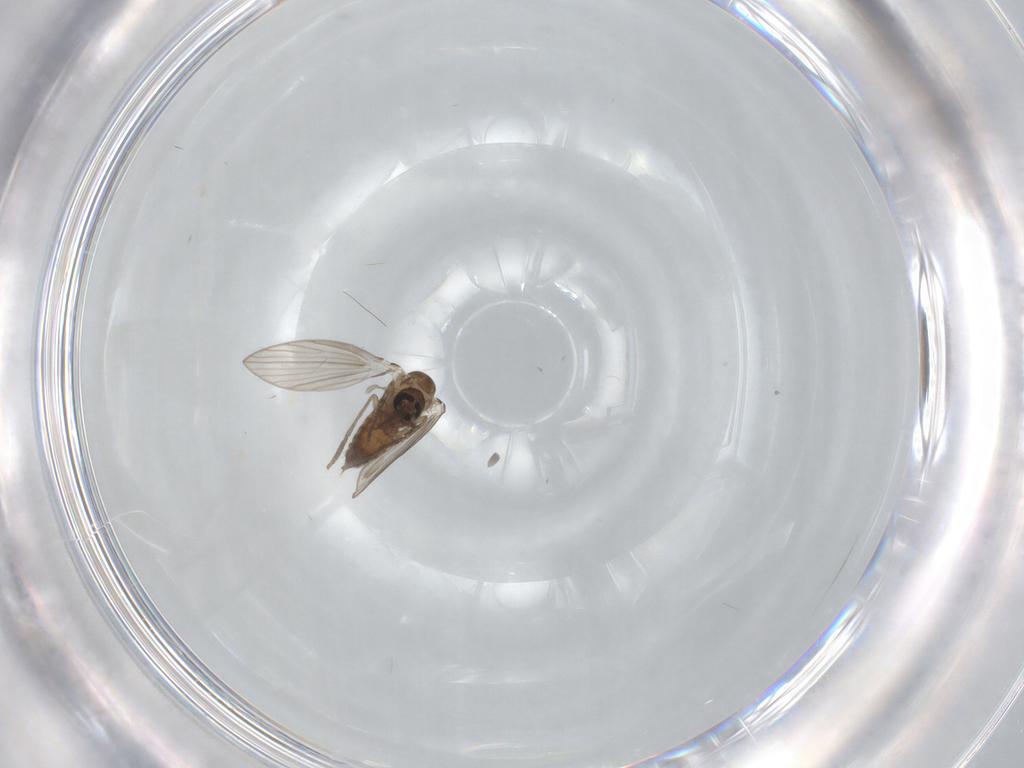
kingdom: Animalia
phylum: Arthropoda
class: Insecta
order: Diptera
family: Psychodidae
